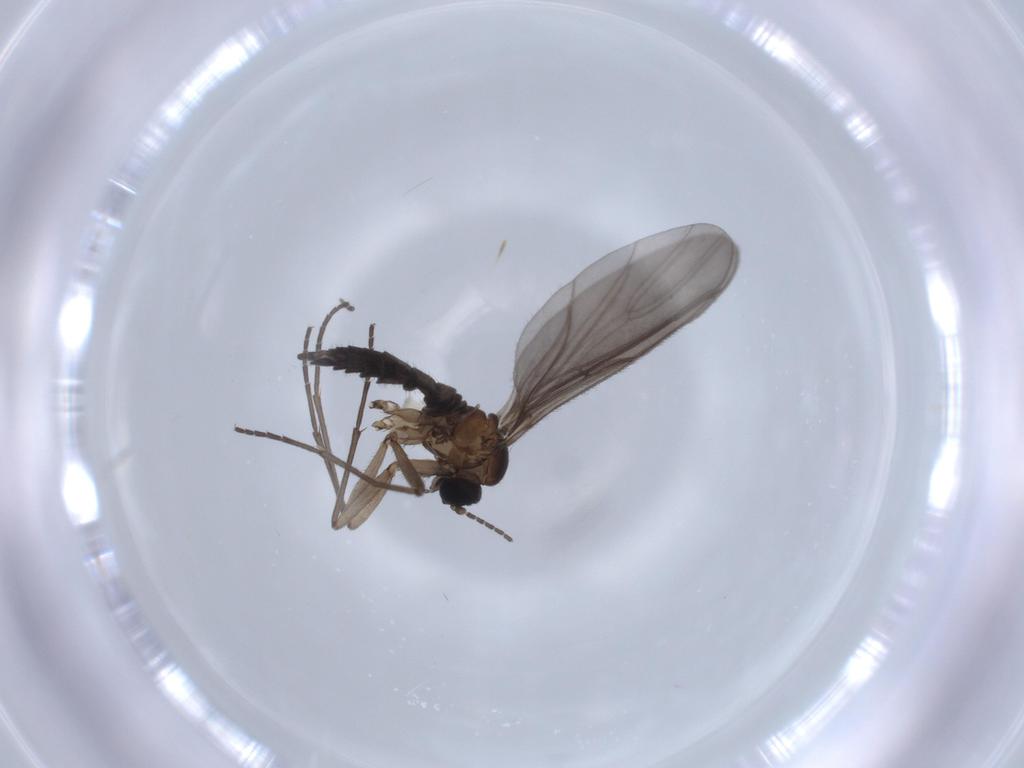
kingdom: Animalia
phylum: Arthropoda
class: Insecta
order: Diptera
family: Sciaridae
